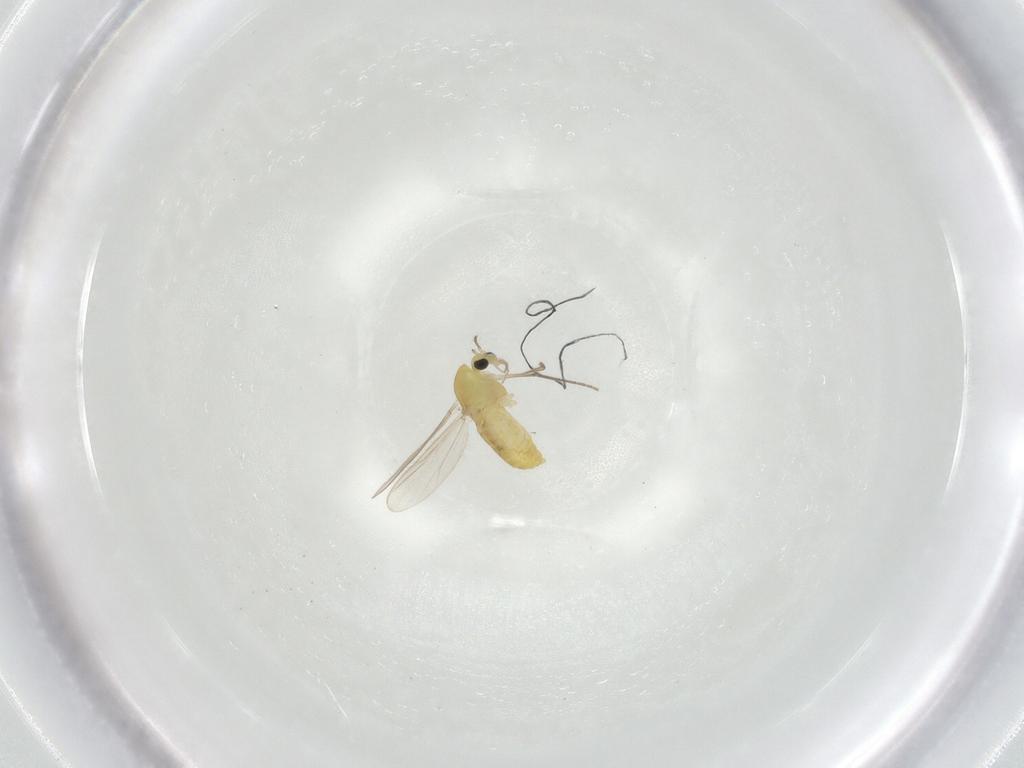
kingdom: Animalia
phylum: Arthropoda
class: Insecta
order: Diptera
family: Chironomidae
